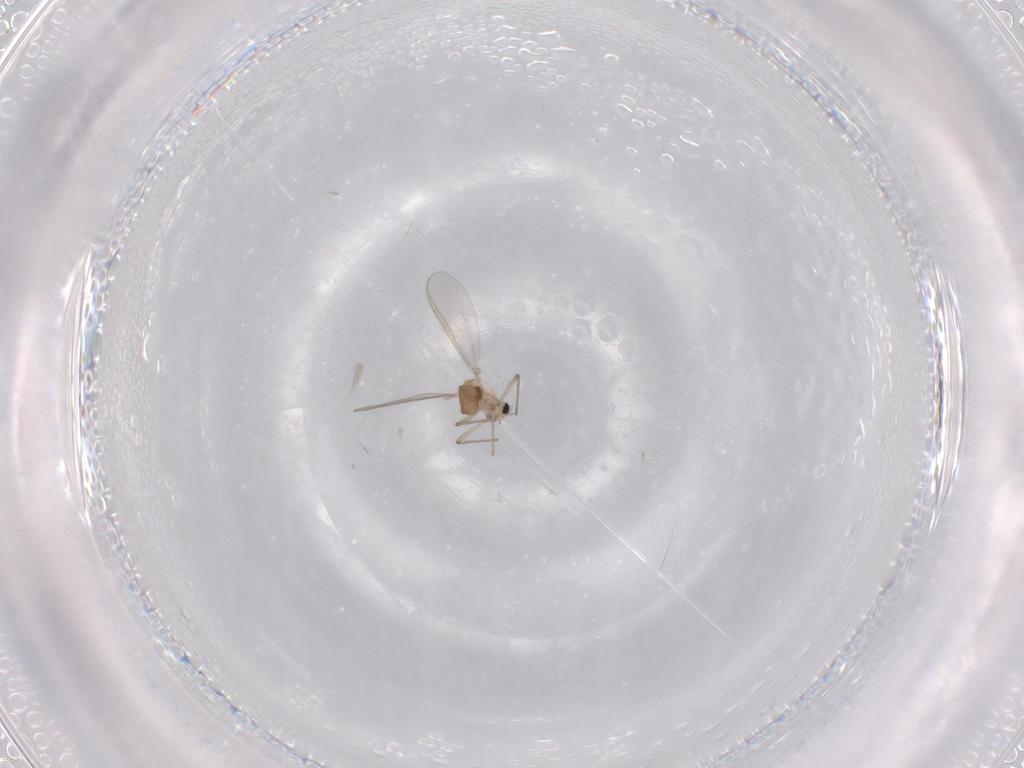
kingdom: Animalia
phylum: Arthropoda
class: Insecta
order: Diptera
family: Chironomidae
